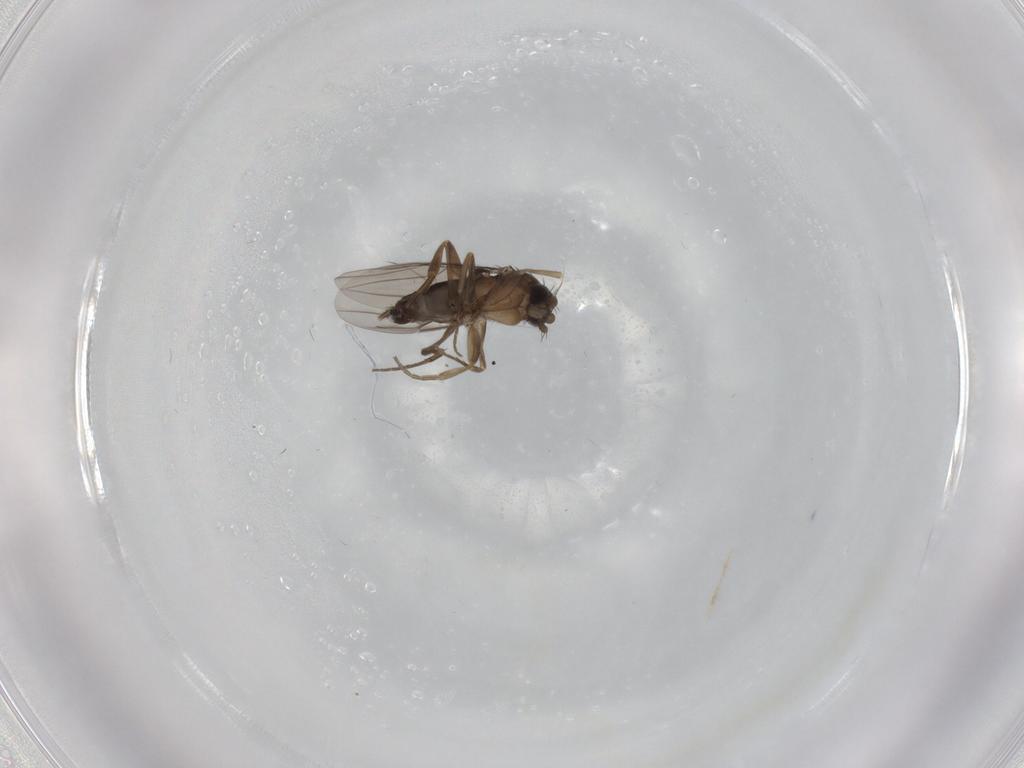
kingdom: Animalia
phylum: Arthropoda
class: Insecta
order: Diptera
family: Phoridae
